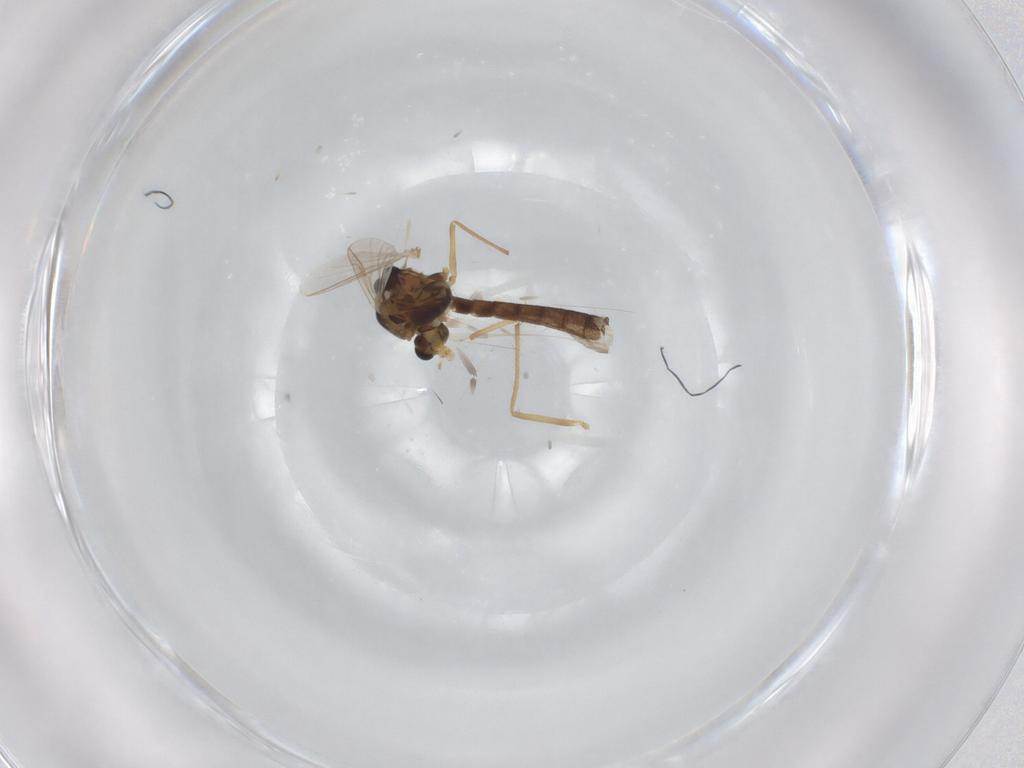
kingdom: Animalia
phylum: Arthropoda
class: Insecta
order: Diptera
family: Chironomidae
